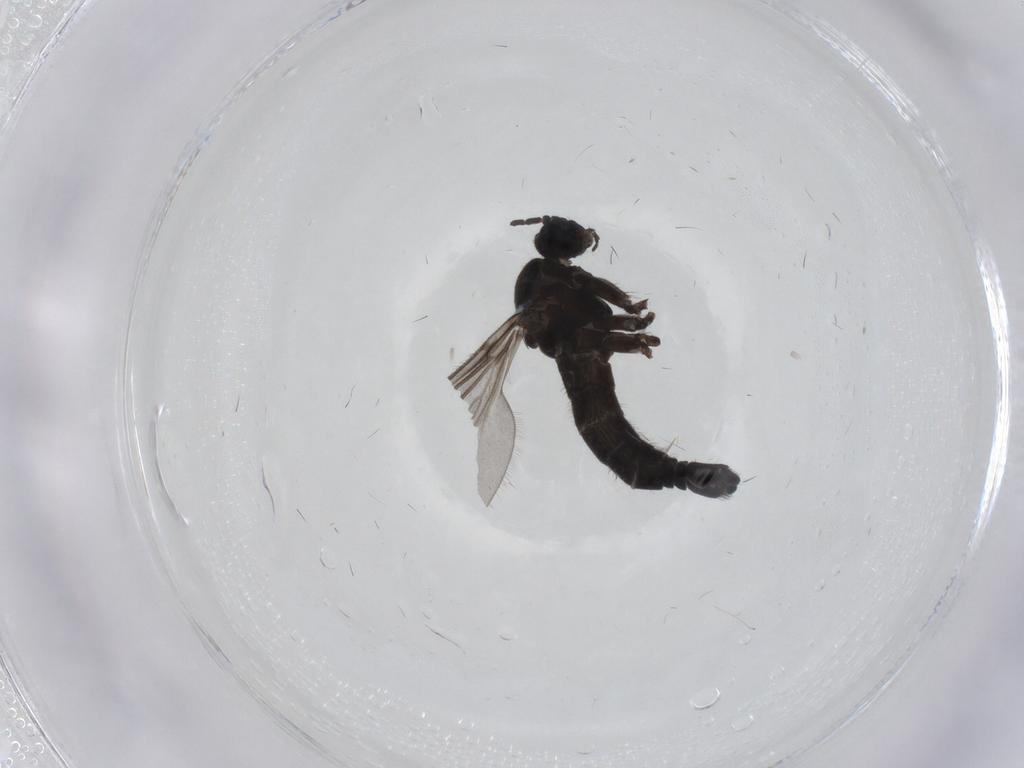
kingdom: Animalia
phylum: Arthropoda
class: Insecta
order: Diptera
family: Sciaridae
